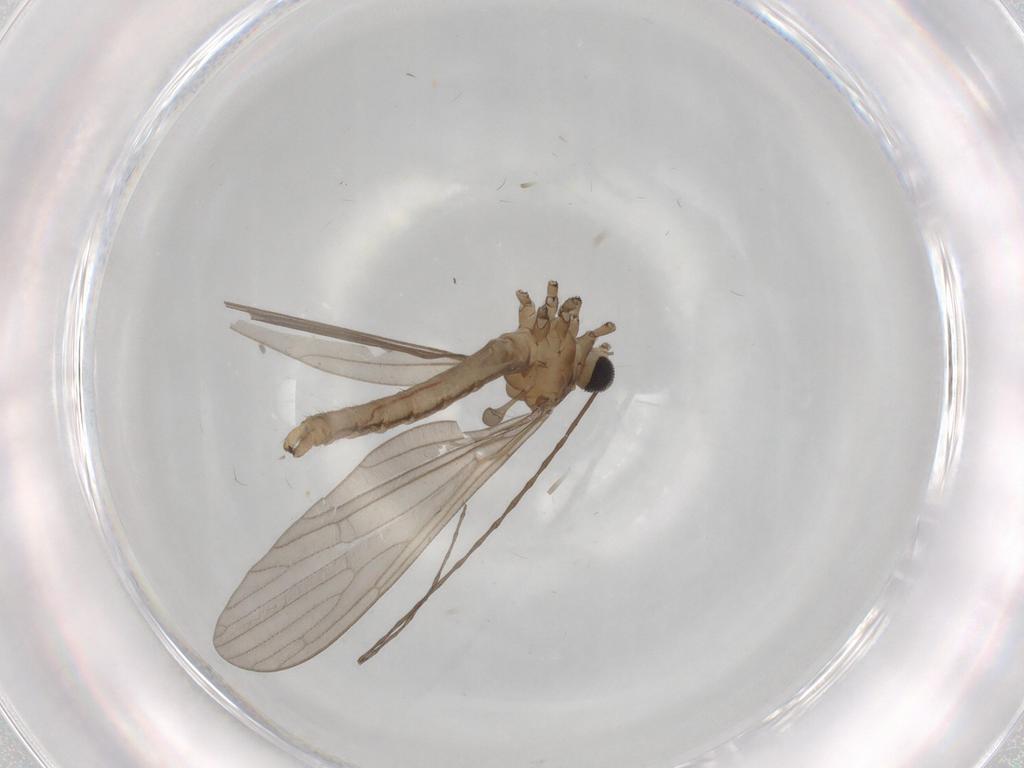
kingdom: Animalia
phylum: Arthropoda
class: Insecta
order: Diptera
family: Limoniidae
